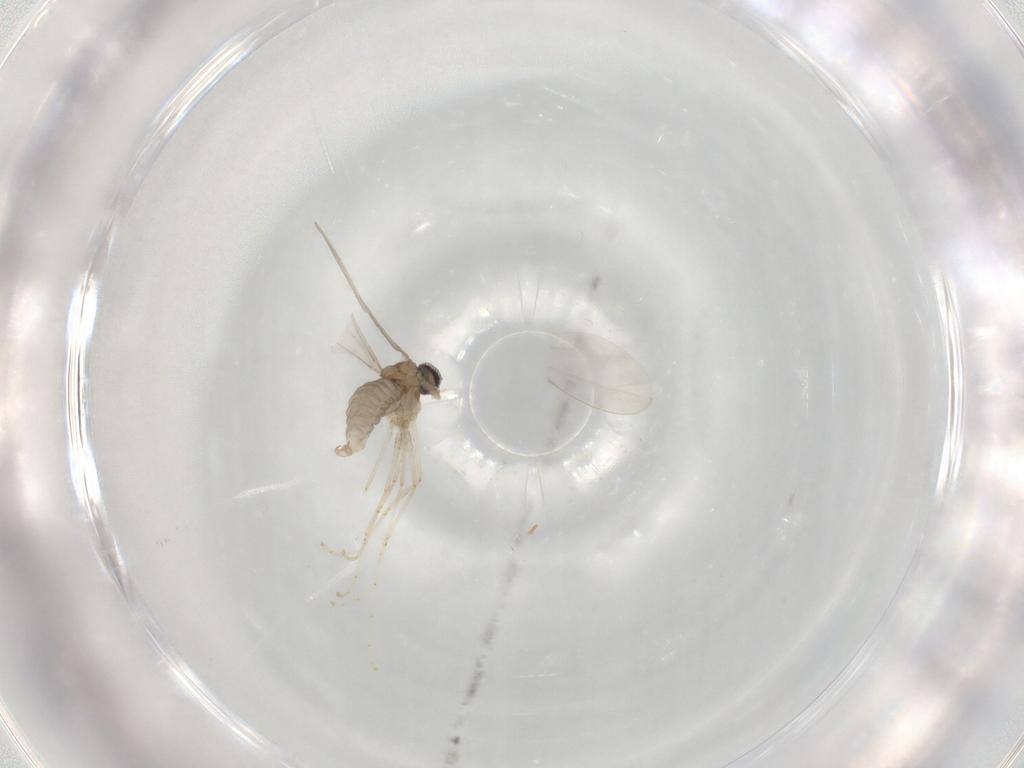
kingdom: Animalia
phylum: Arthropoda
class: Insecta
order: Diptera
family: Cecidomyiidae
